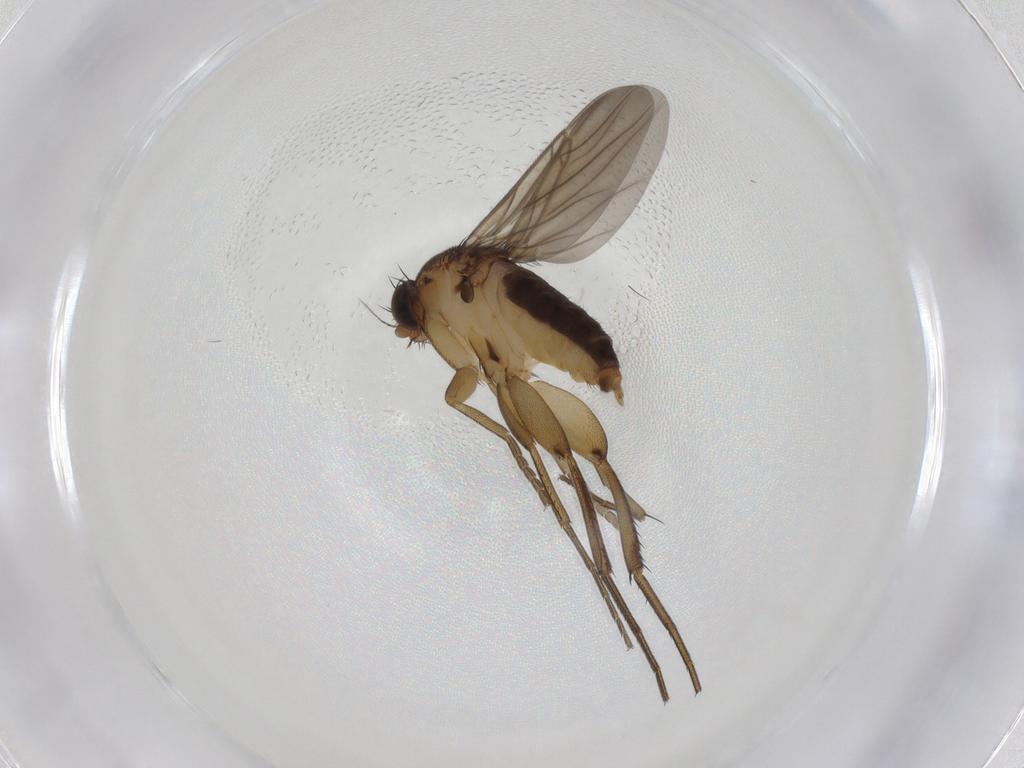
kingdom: Animalia
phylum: Arthropoda
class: Insecta
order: Diptera
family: Phoridae
